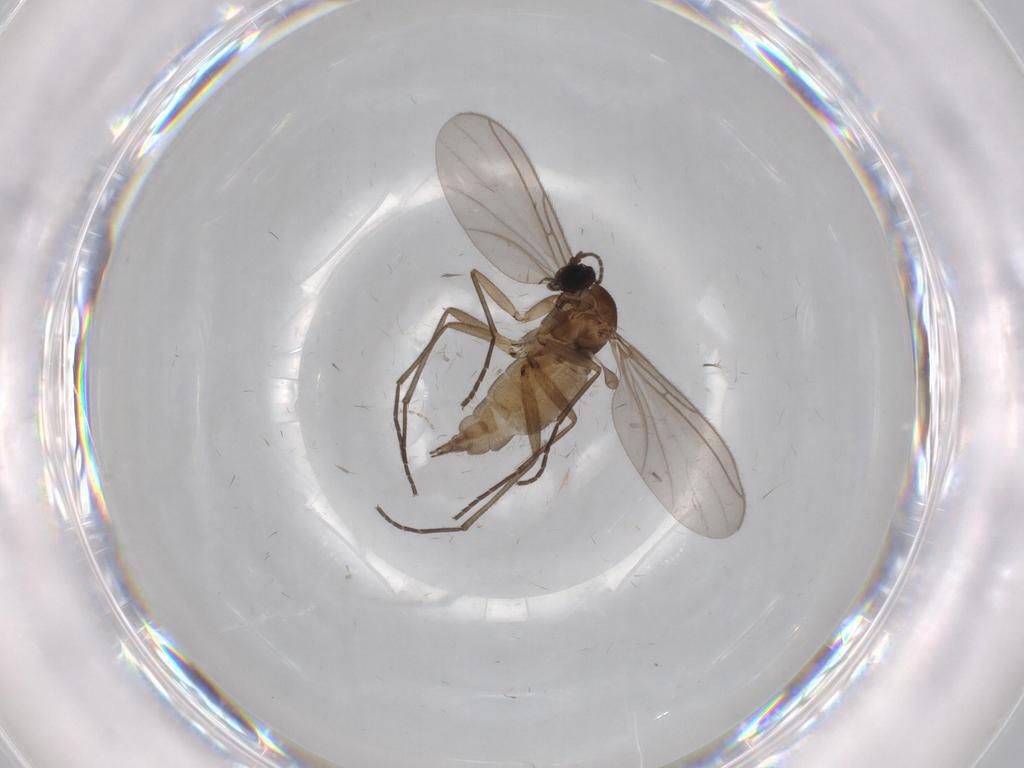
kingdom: Animalia
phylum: Arthropoda
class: Insecta
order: Diptera
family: Sciaridae
